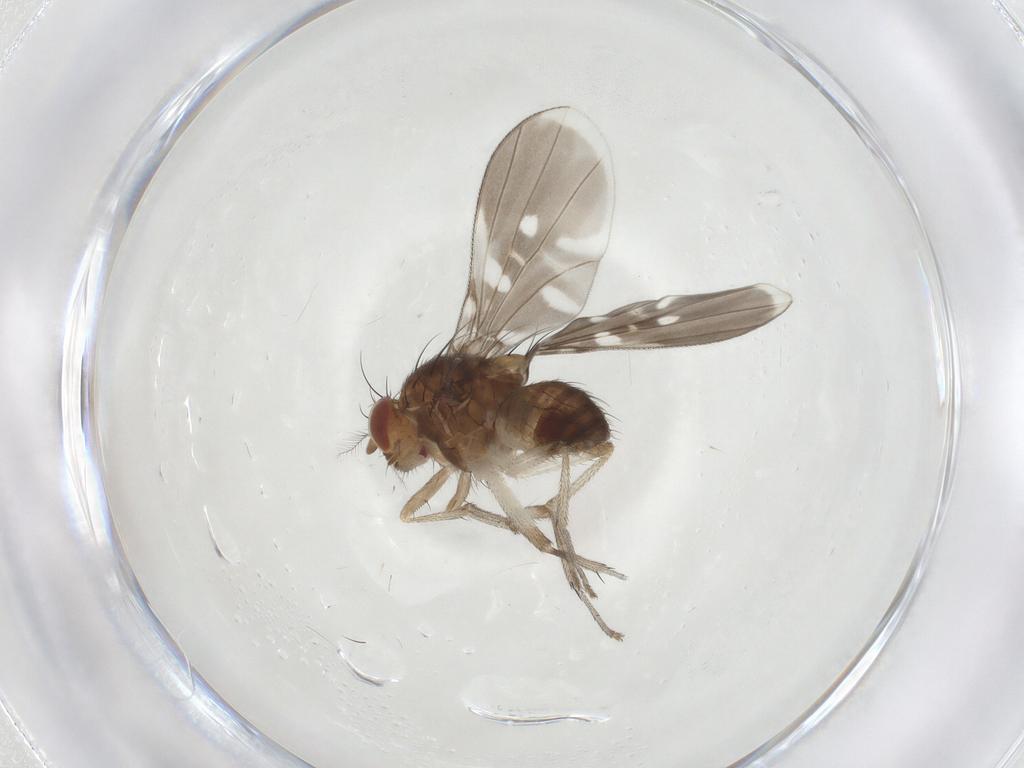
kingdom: Animalia
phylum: Arthropoda
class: Insecta
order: Diptera
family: Lauxaniidae
